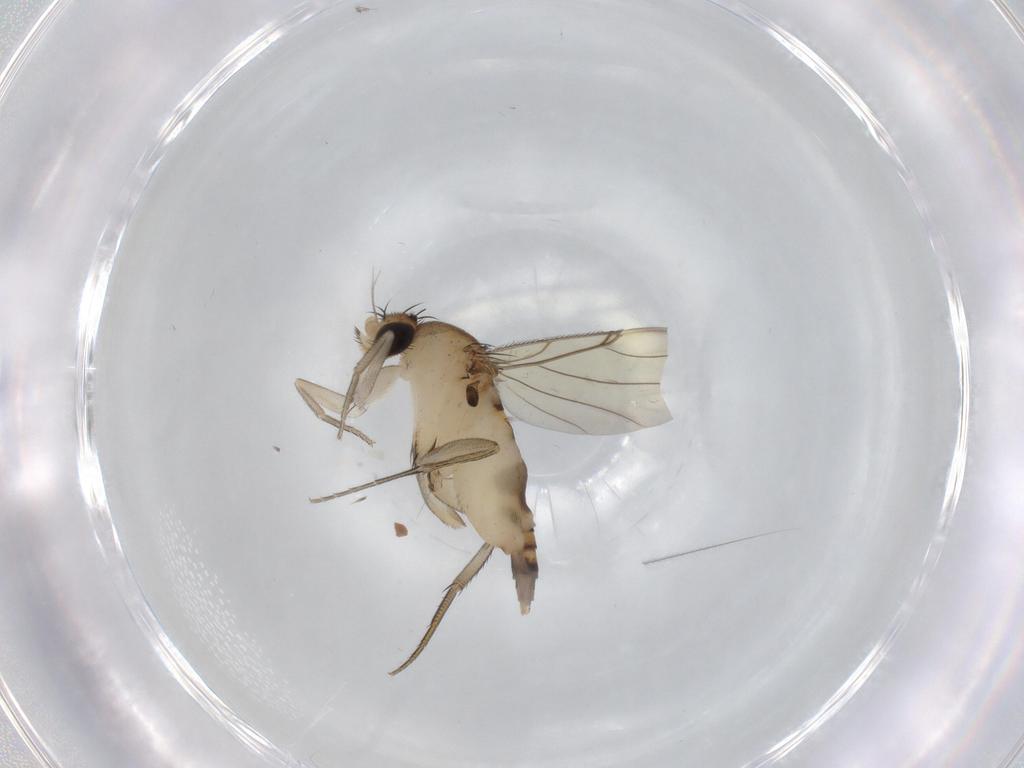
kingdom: Animalia
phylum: Arthropoda
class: Insecta
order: Diptera
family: Phoridae
